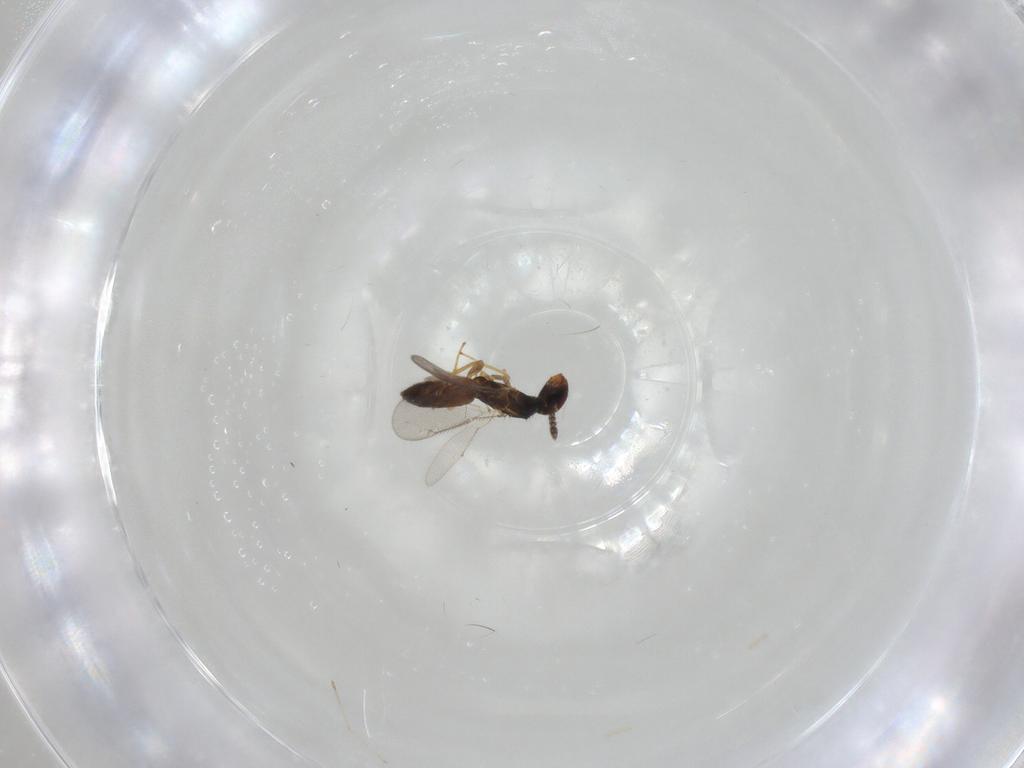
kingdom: Animalia
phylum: Arthropoda
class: Insecta
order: Hymenoptera
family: Eulophidae
